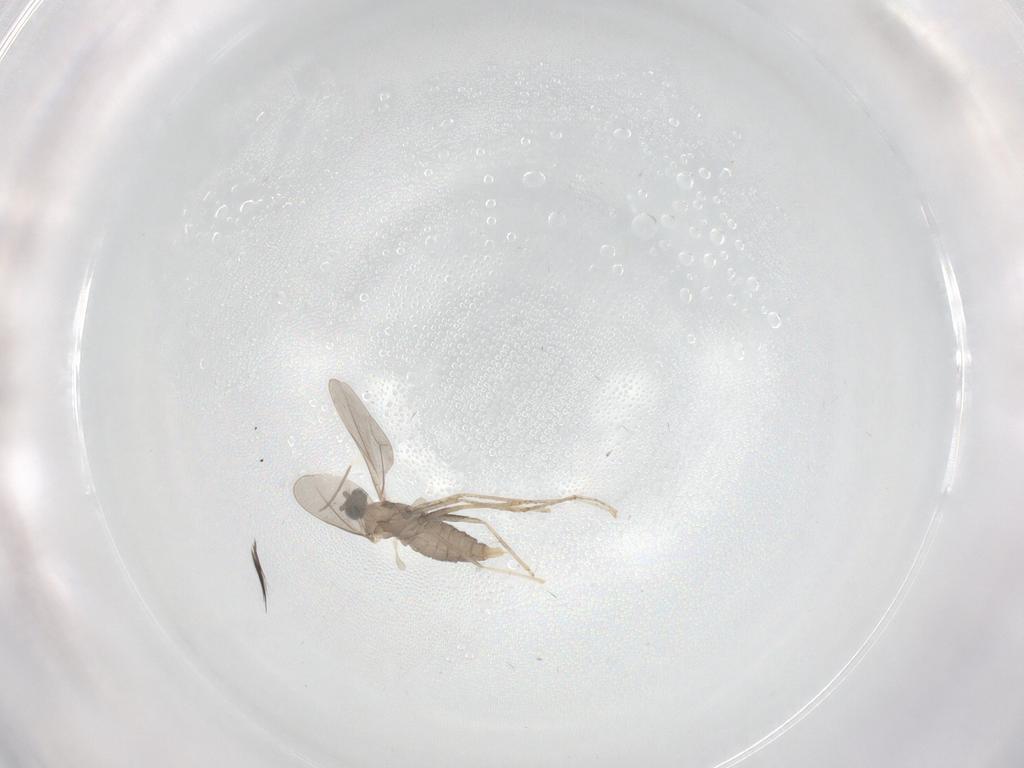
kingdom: Animalia
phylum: Arthropoda
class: Insecta
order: Diptera
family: Cecidomyiidae
